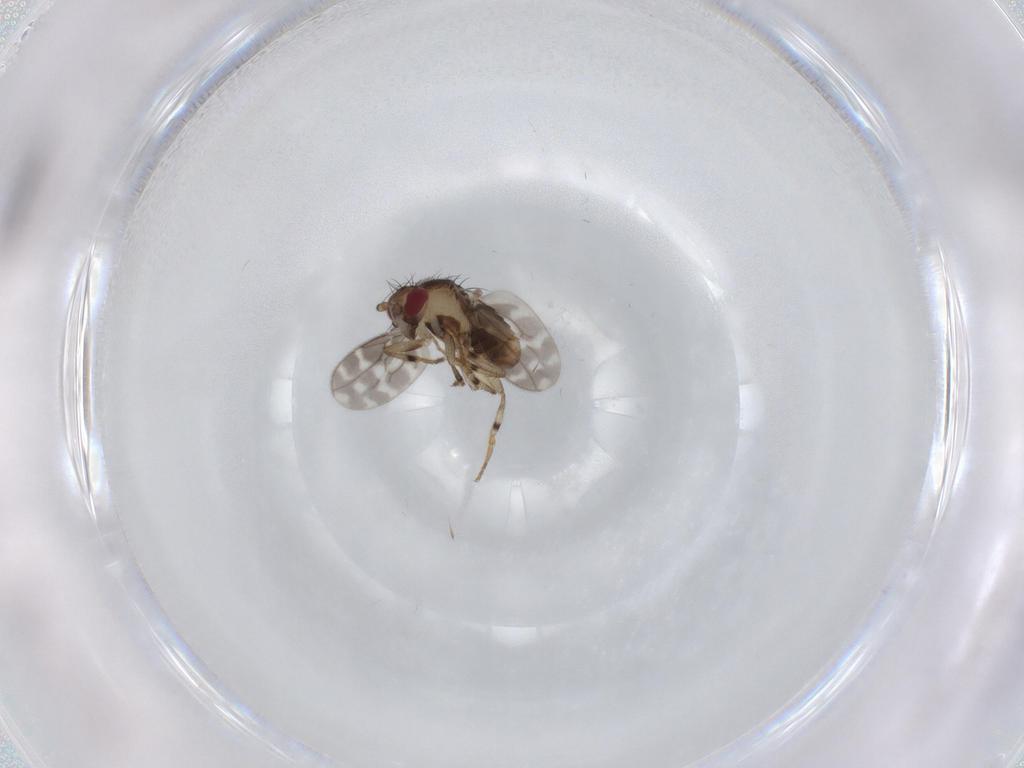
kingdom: Animalia
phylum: Arthropoda
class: Insecta
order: Diptera
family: Sphaeroceridae
